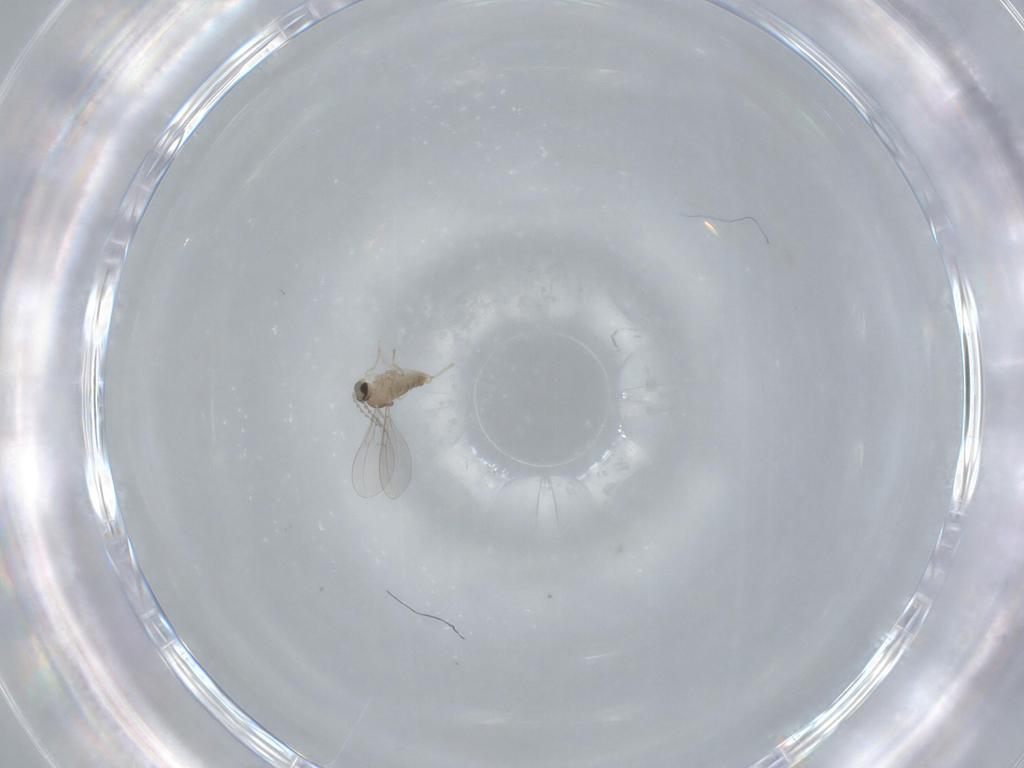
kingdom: Animalia
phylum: Arthropoda
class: Insecta
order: Diptera
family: Cecidomyiidae
